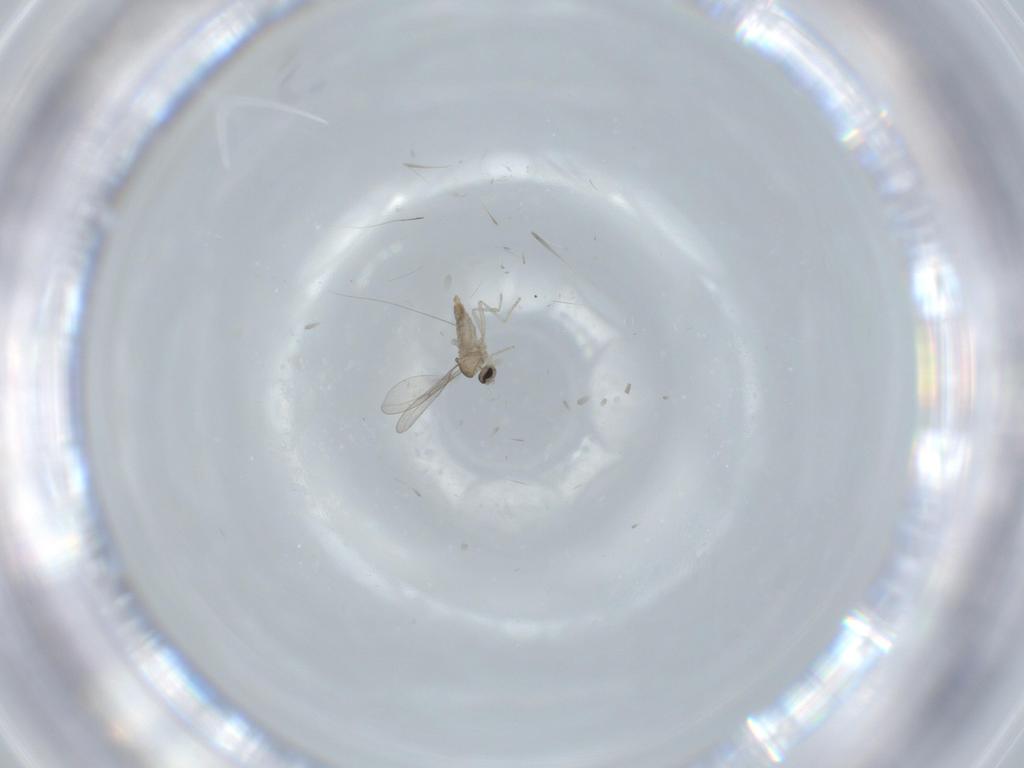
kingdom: Animalia
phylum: Arthropoda
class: Insecta
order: Diptera
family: Cecidomyiidae
